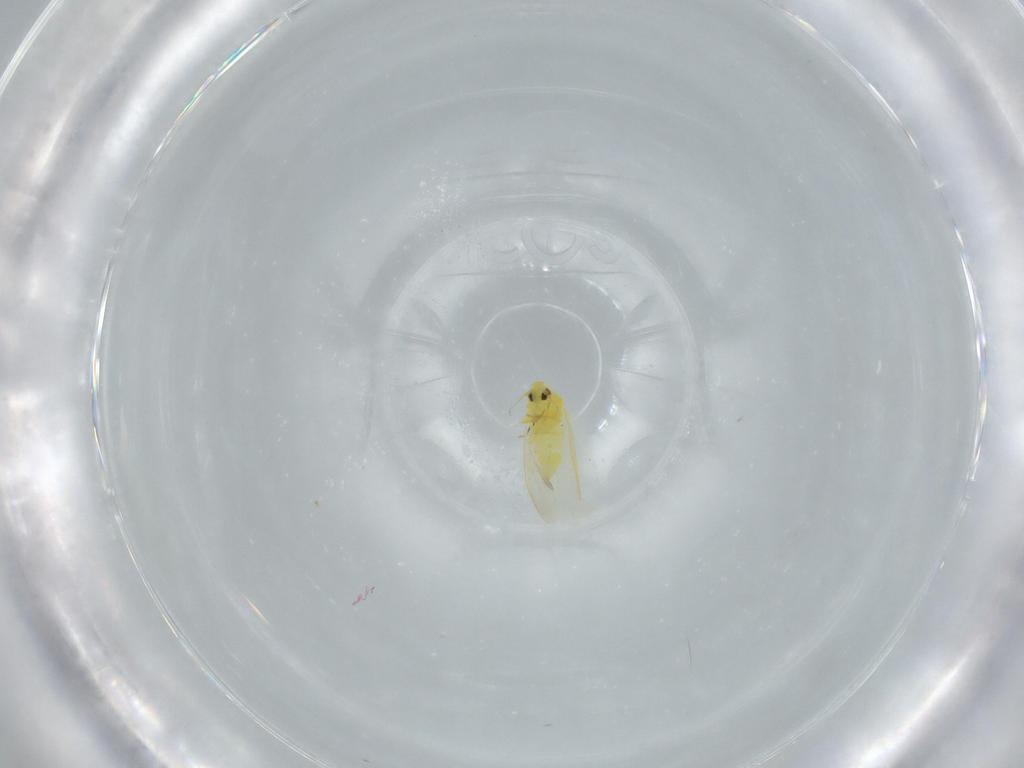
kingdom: Animalia
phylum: Arthropoda
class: Insecta
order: Hemiptera
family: Aleyrodidae
